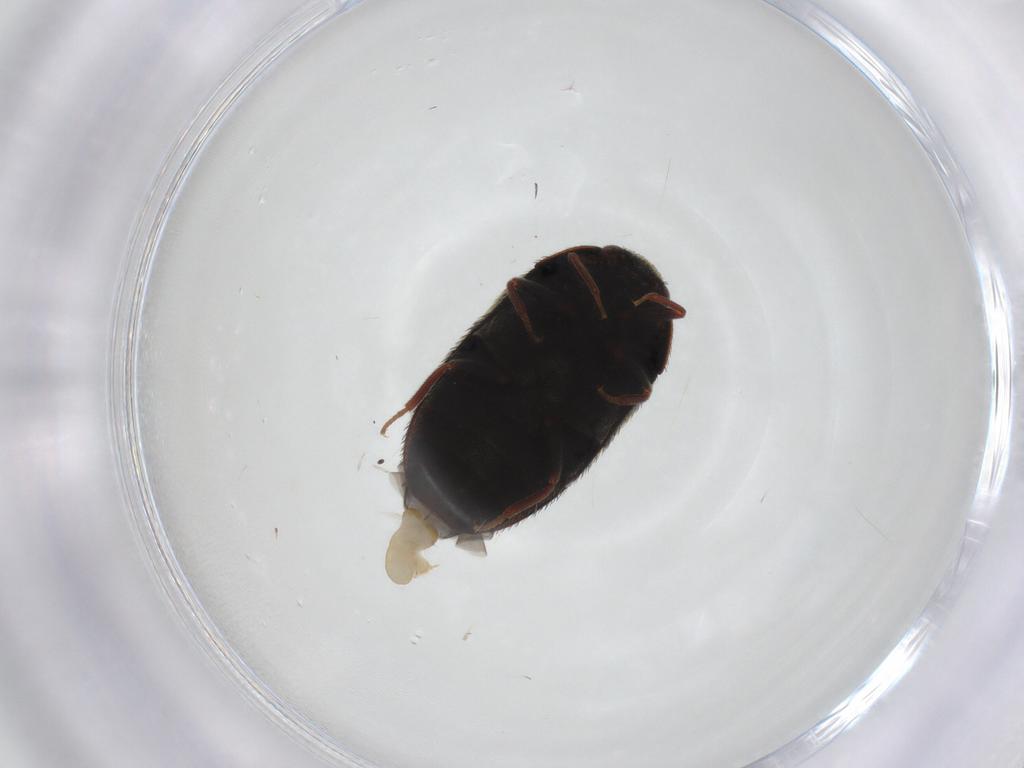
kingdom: Animalia
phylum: Arthropoda
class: Insecta
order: Coleoptera
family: Dermestidae
